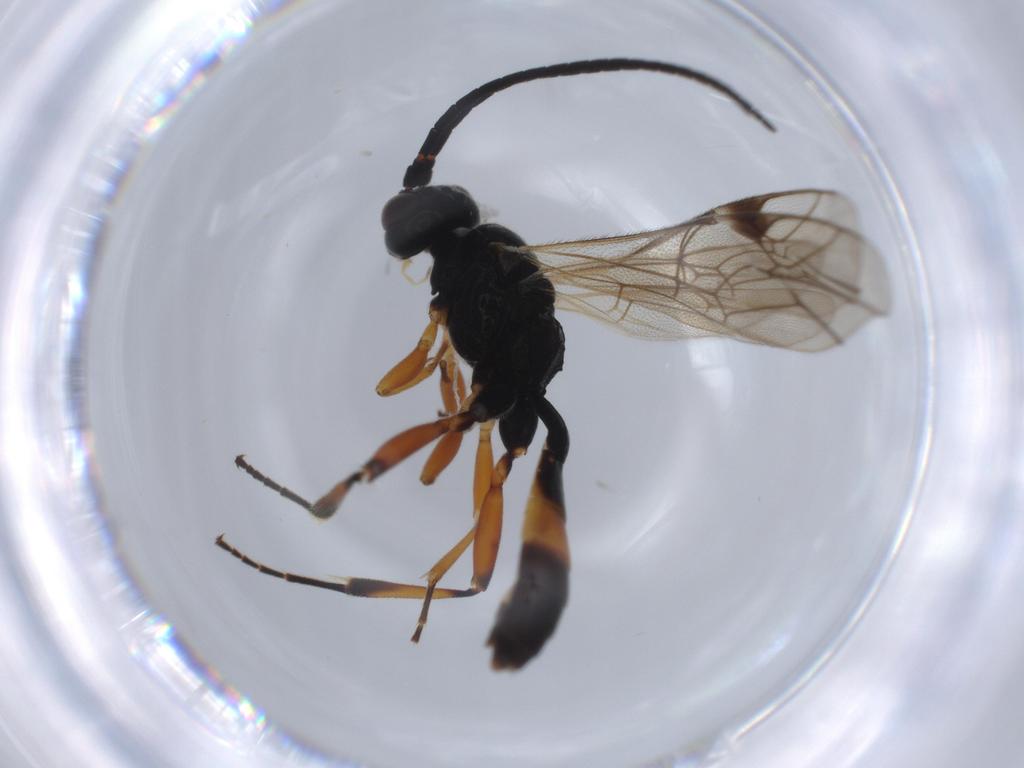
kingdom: Animalia
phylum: Arthropoda
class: Insecta
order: Hymenoptera
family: Ichneumonidae
